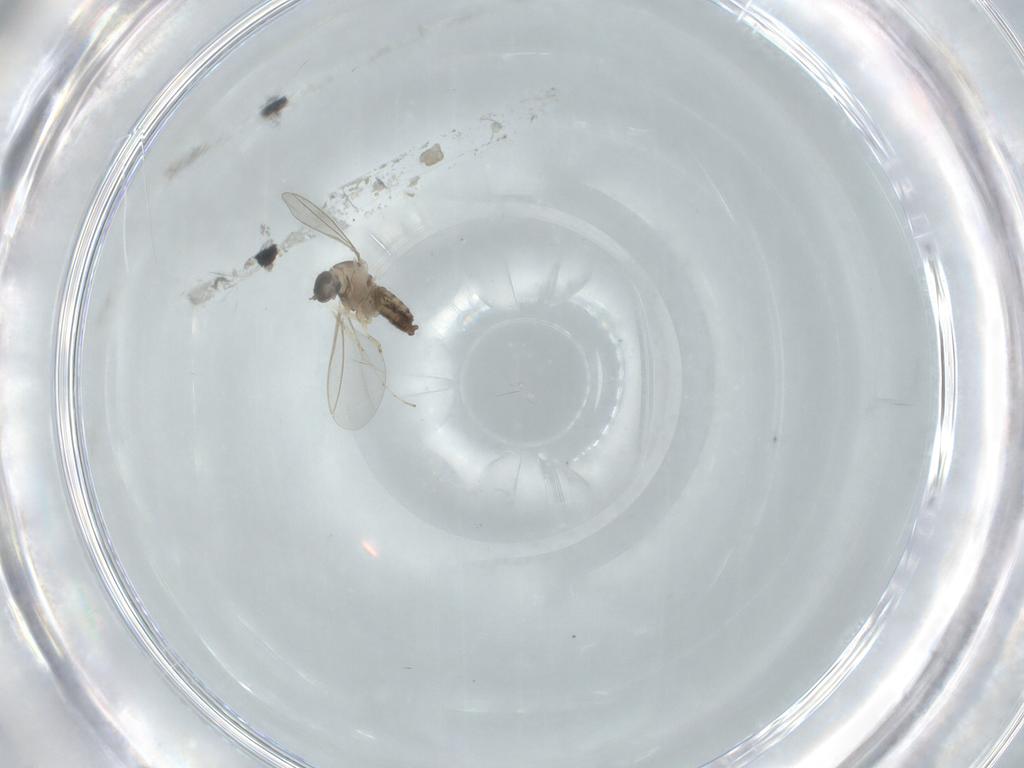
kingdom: Animalia
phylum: Arthropoda
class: Insecta
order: Diptera
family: Cecidomyiidae
